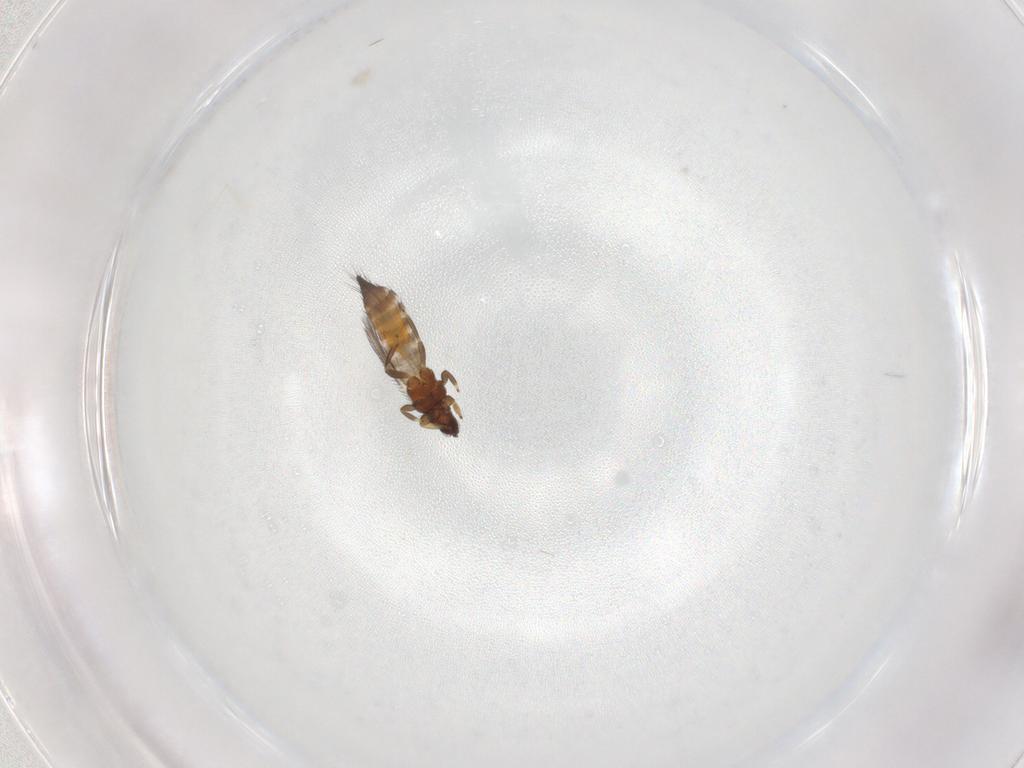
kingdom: Animalia
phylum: Arthropoda
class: Insecta
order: Thysanoptera
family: Thripidae
